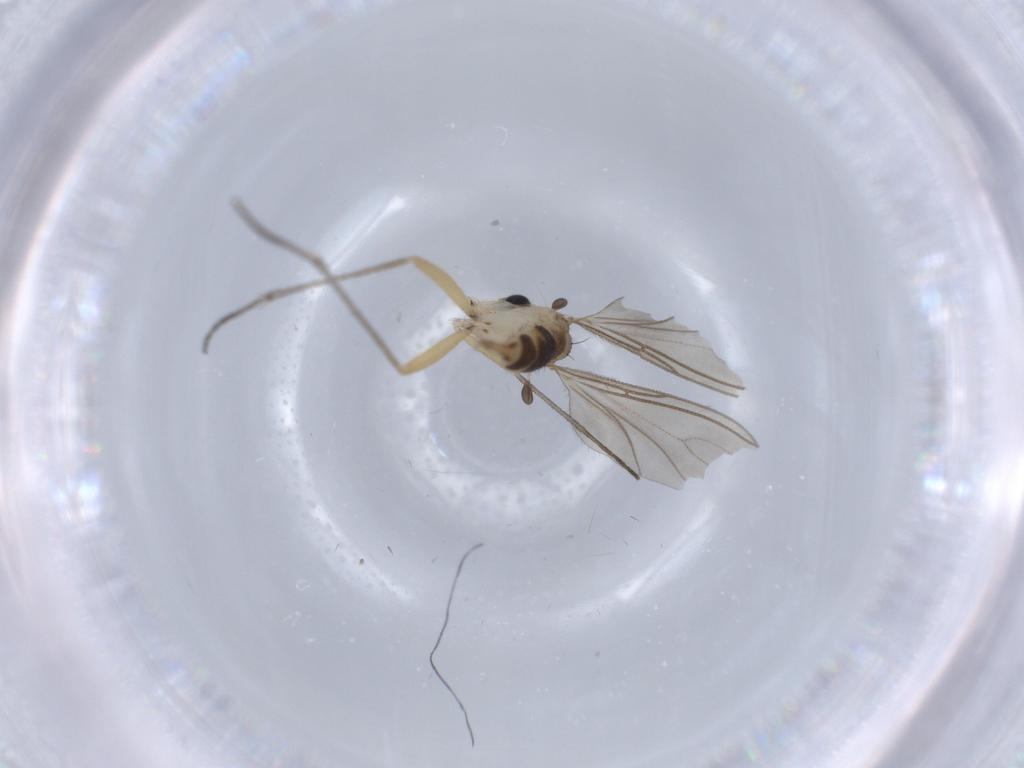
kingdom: Animalia
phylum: Arthropoda
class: Insecta
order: Diptera
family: Sciaridae
